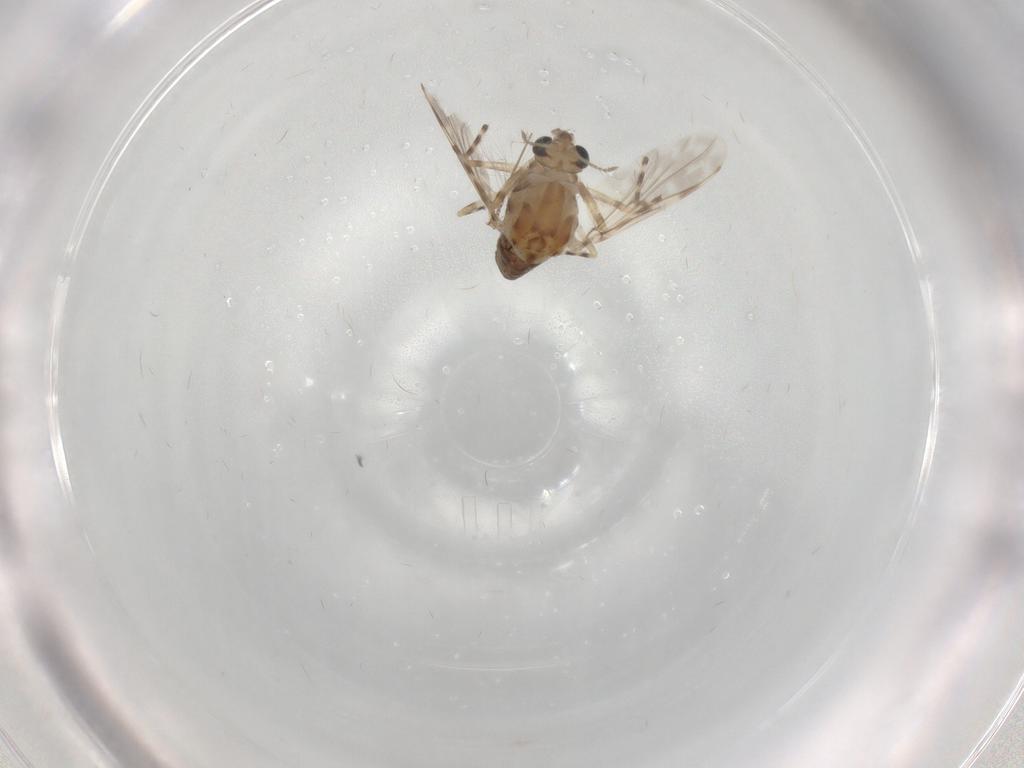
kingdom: Animalia
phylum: Arthropoda
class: Insecta
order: Diptera
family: Chironomidae
